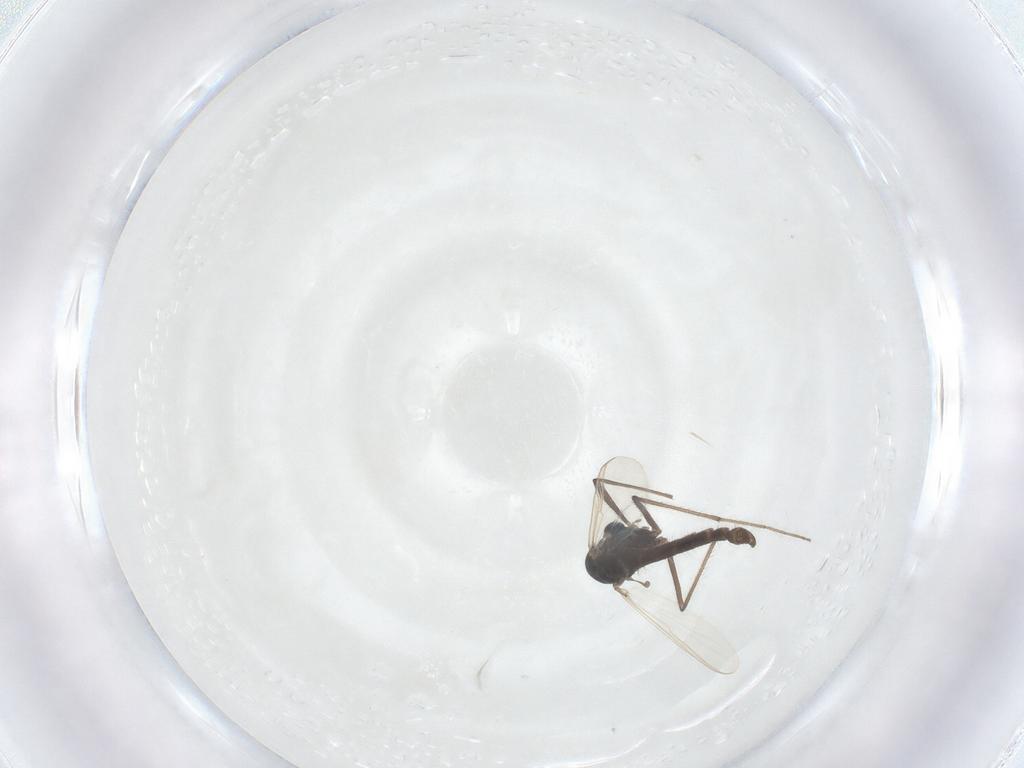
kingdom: Animalia
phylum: Arthropoda
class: Insecta
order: Diptera
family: Chironomidae
